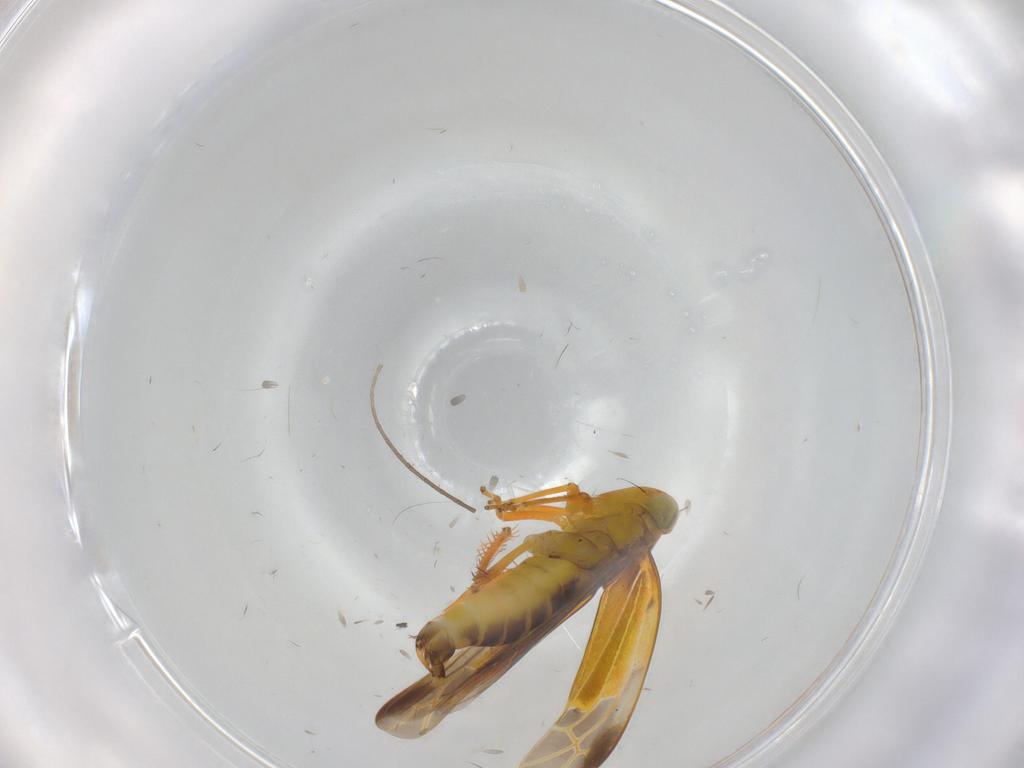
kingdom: Animalia
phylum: Arthropoda
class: Insecta
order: Hemiptera
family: Cicadellidae
